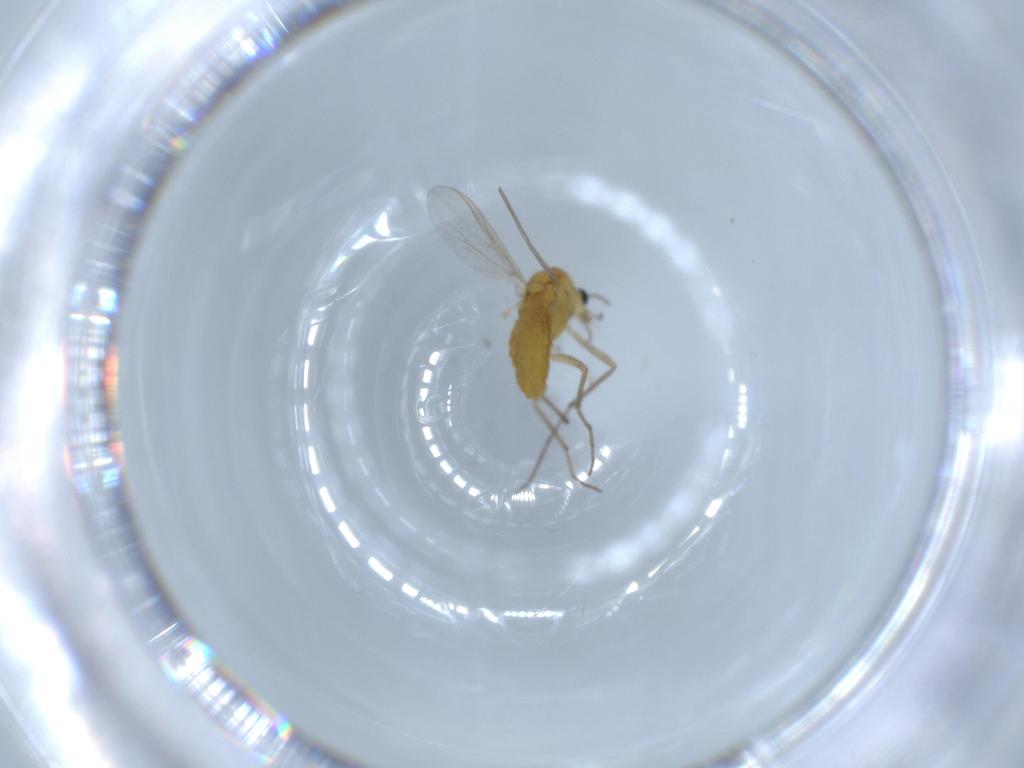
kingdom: Animalia
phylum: Arthropoda
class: Insecta
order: Diptera
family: Chironomidae
